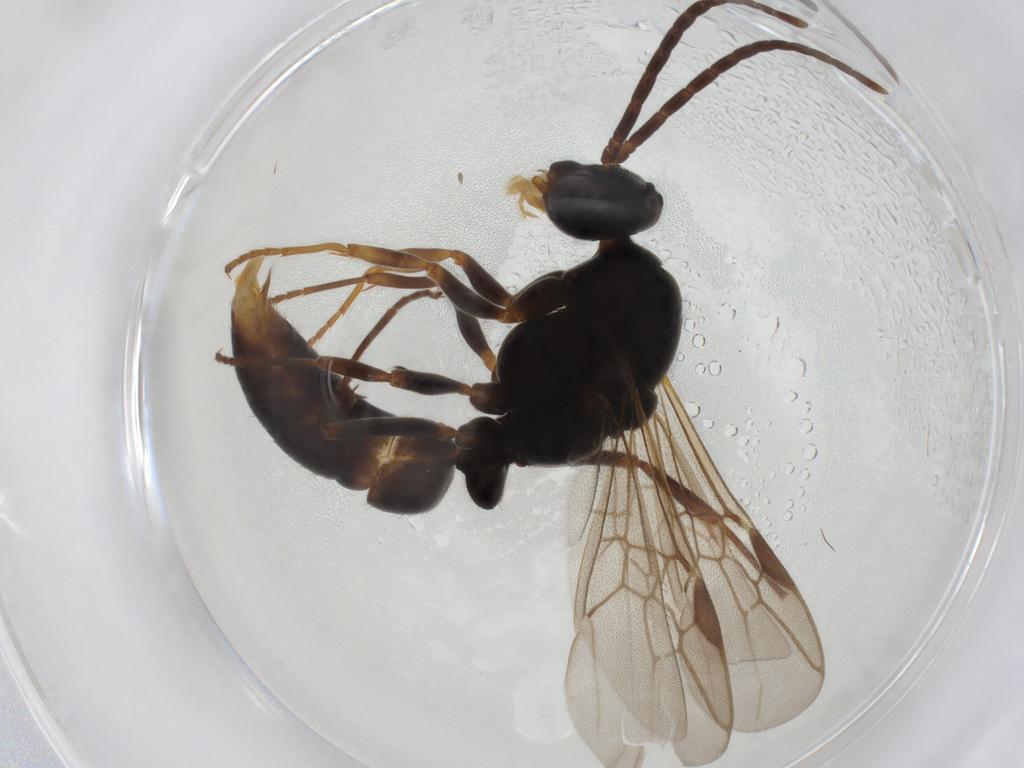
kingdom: Animalia
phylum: Arthropoda
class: Insecta
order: Hymenoptera
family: Formicidae
